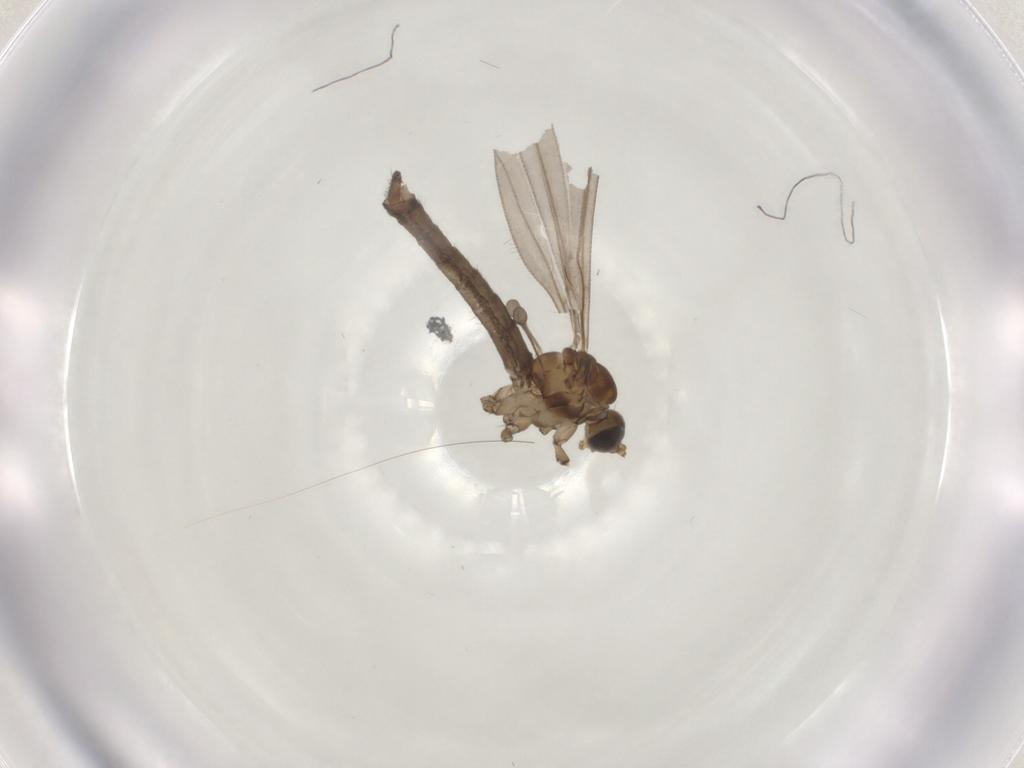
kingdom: Animalia
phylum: Arthropoda
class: Insecta
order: Diptera
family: Limoniidae
